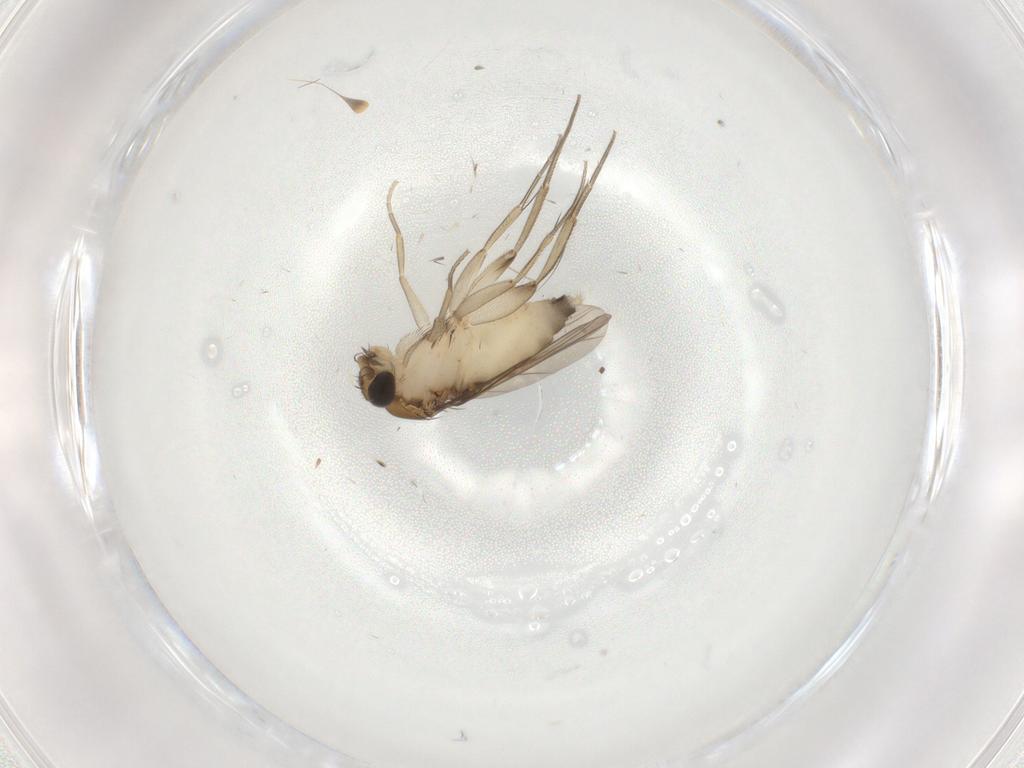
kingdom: Animalia
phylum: Arthropoda
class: Insecta
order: Diptera
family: Phoridae
